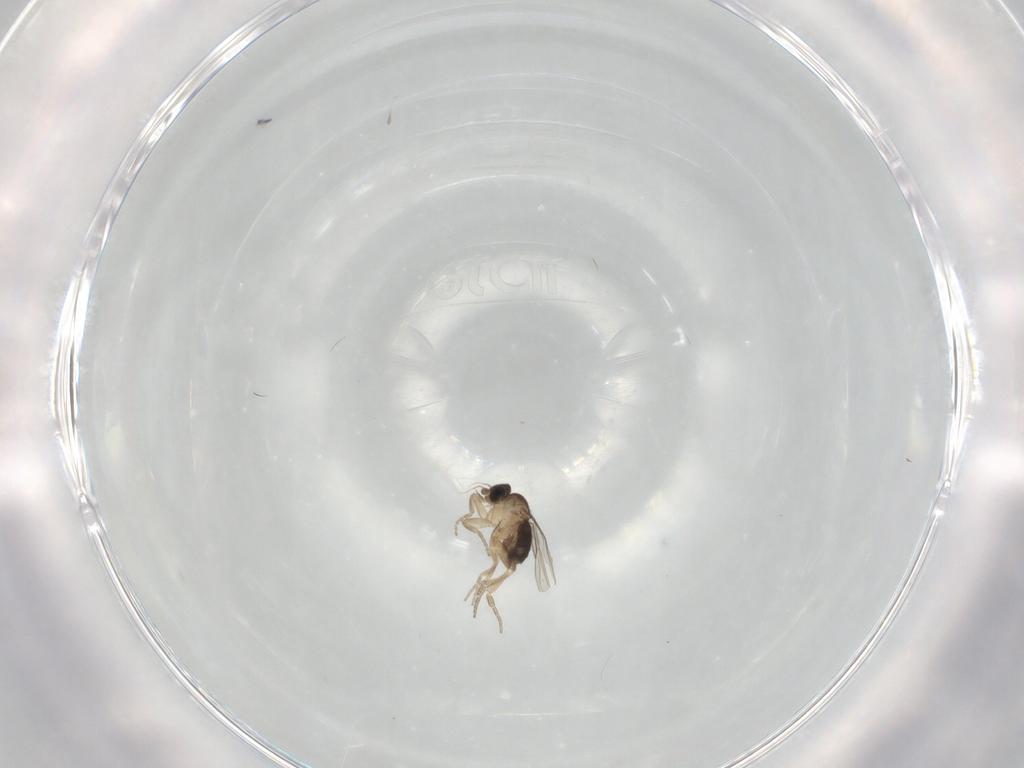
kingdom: Animalia
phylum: Arthropoda
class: Insecta
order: Diptera
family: Phoridae
